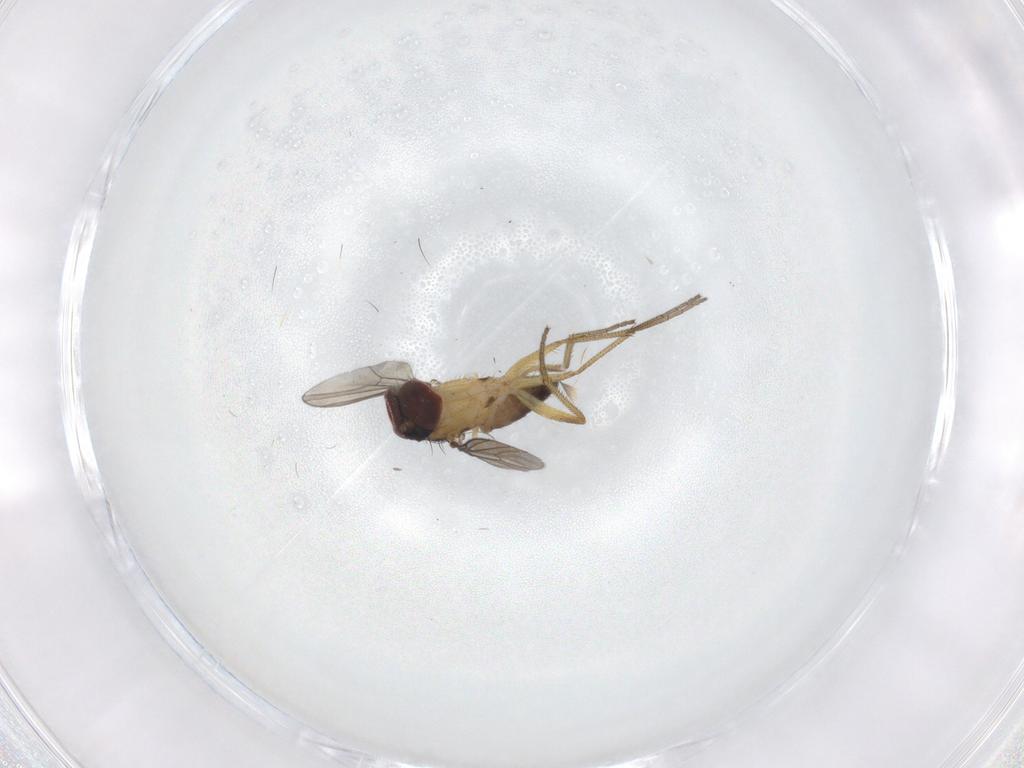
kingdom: Animalia
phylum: Arthropoda
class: Insecta
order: Diptera
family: Dolichopodidae
